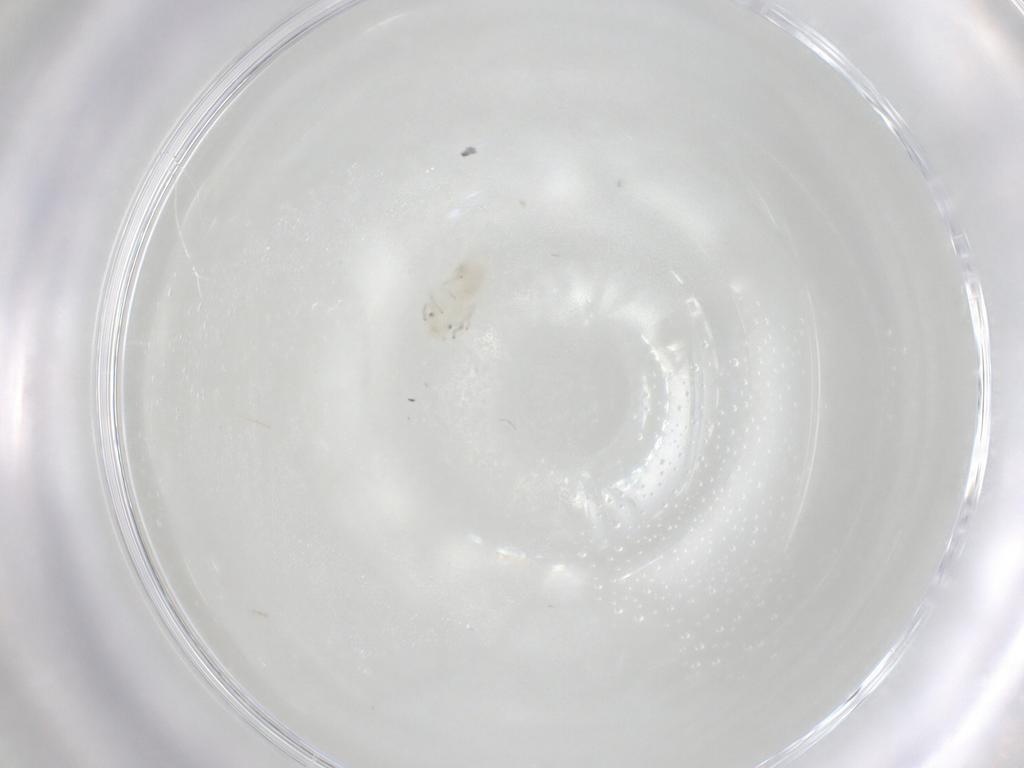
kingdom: Animalia
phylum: Arthropoda
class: Insecta
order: Psocodea
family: Caeciliusidae
